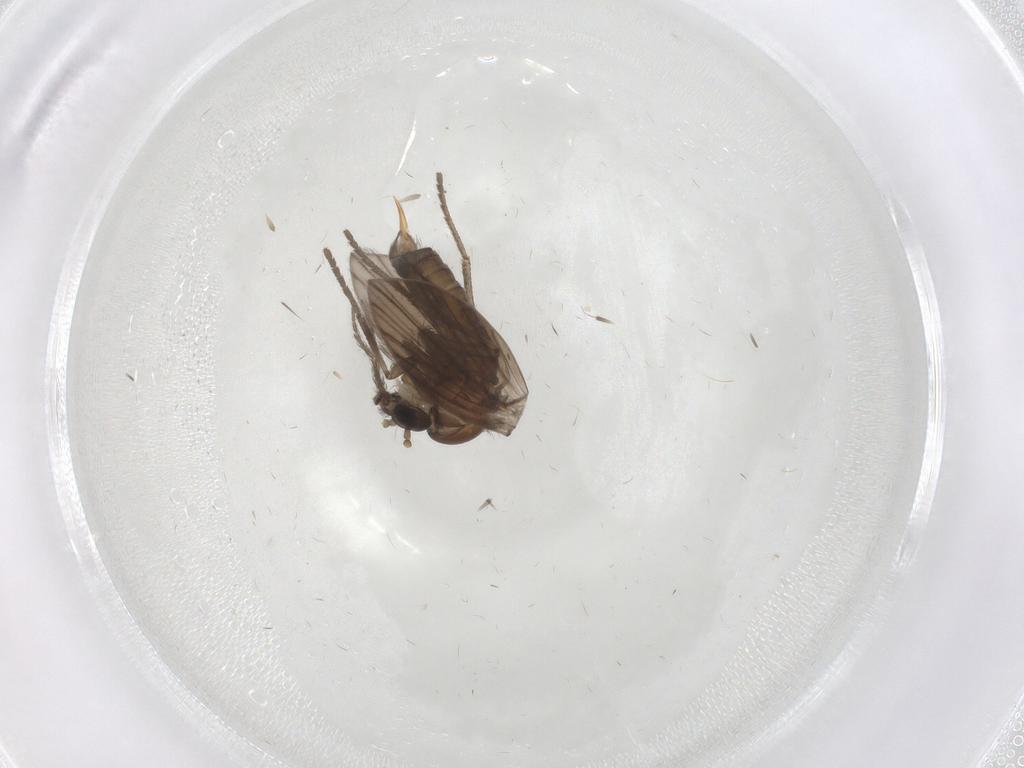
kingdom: Animalia
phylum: Arthropoda
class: Insecta
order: Diptera
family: Psychodidae
